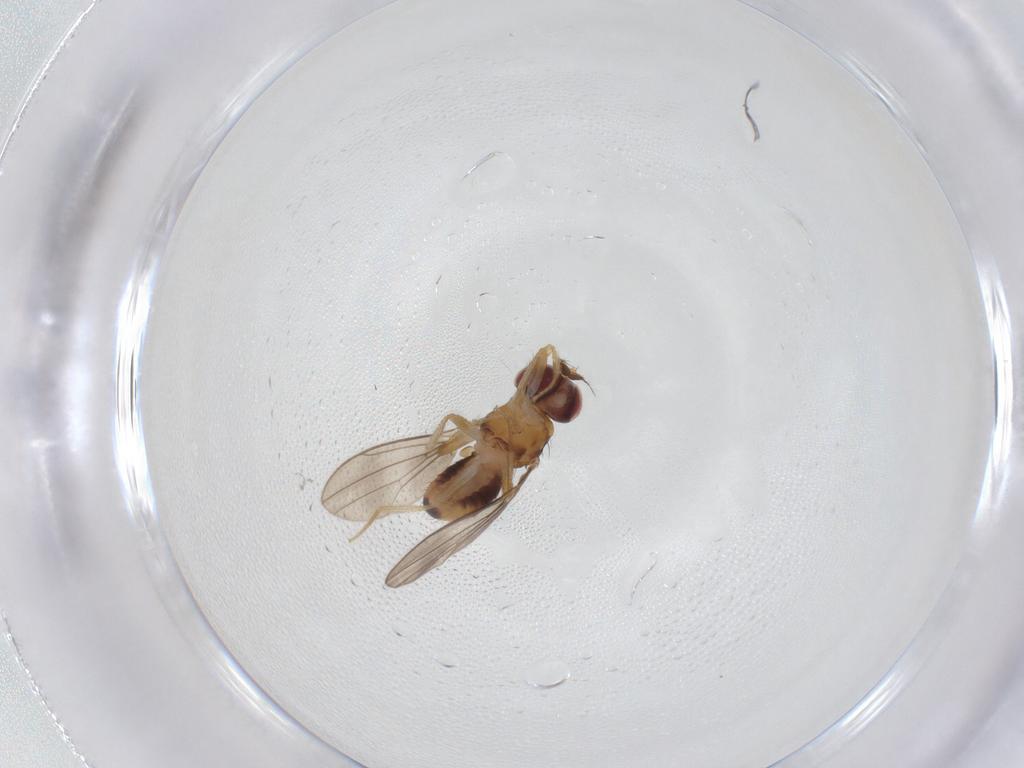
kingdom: Animalia
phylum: Arthropoda
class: Insecta
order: Diptera
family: Drosophilidae
